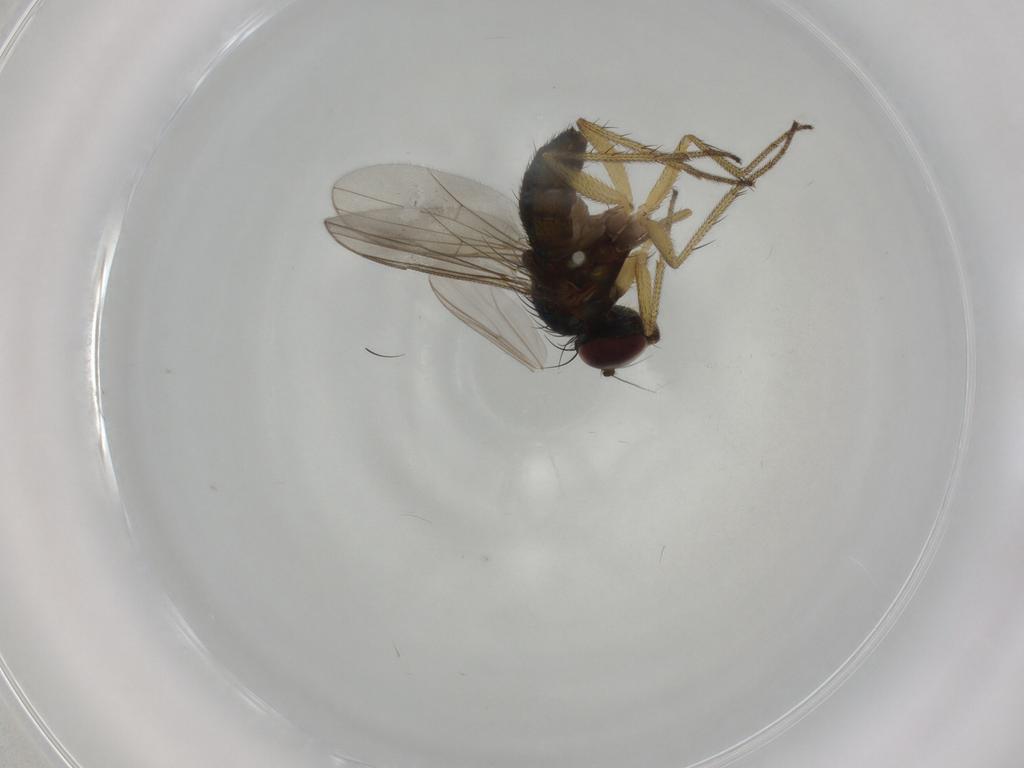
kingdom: Animalia
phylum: Arthropoda
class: Insecta
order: Diptera
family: Dolichopodidae
